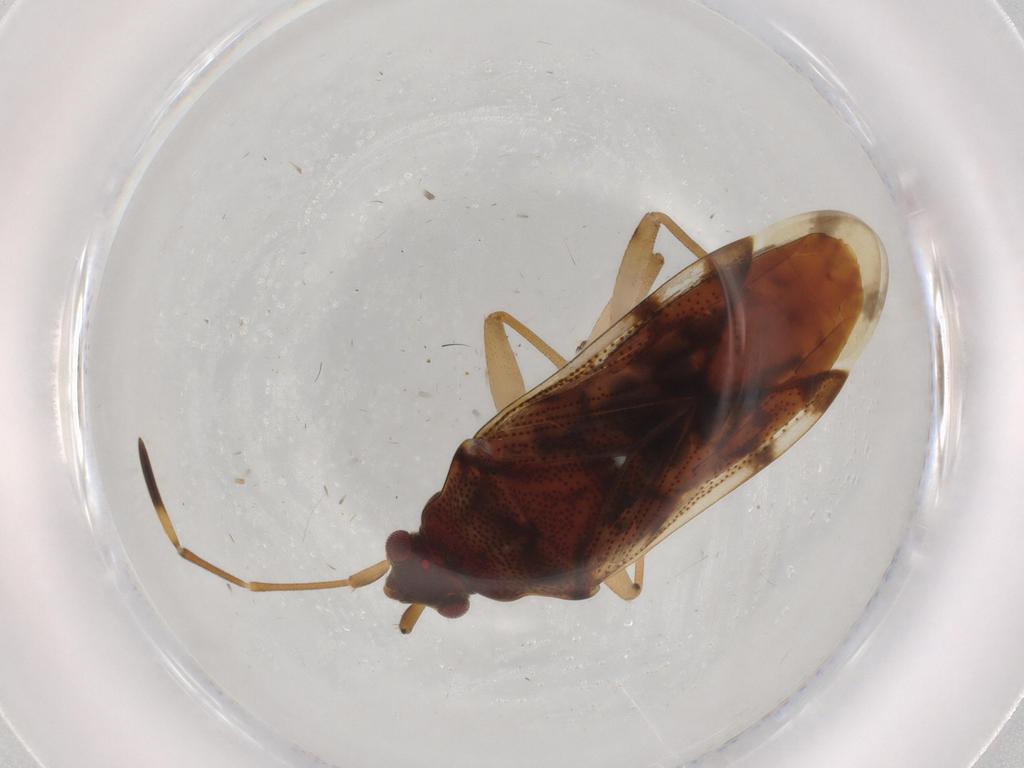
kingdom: Animalia
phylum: Arthropoda
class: Insecta
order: Hemiptera
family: Rhyparochromidae
